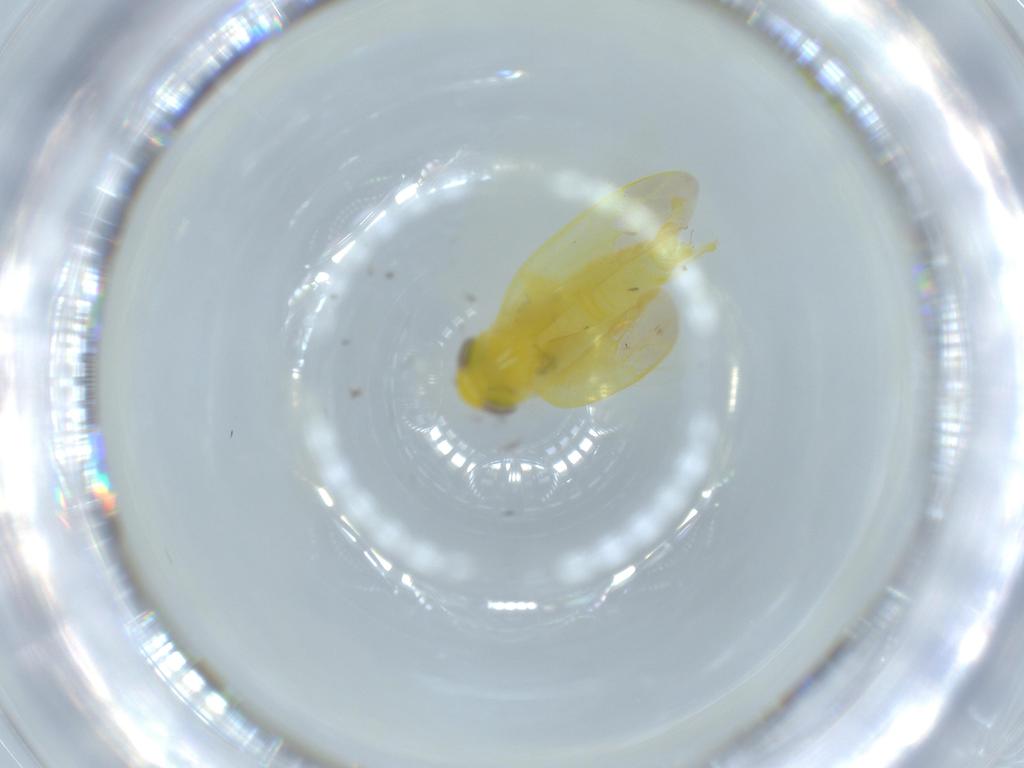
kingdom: Animalia
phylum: Arthropoda
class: Insecta
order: Hemiptera
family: Cicadellidae
